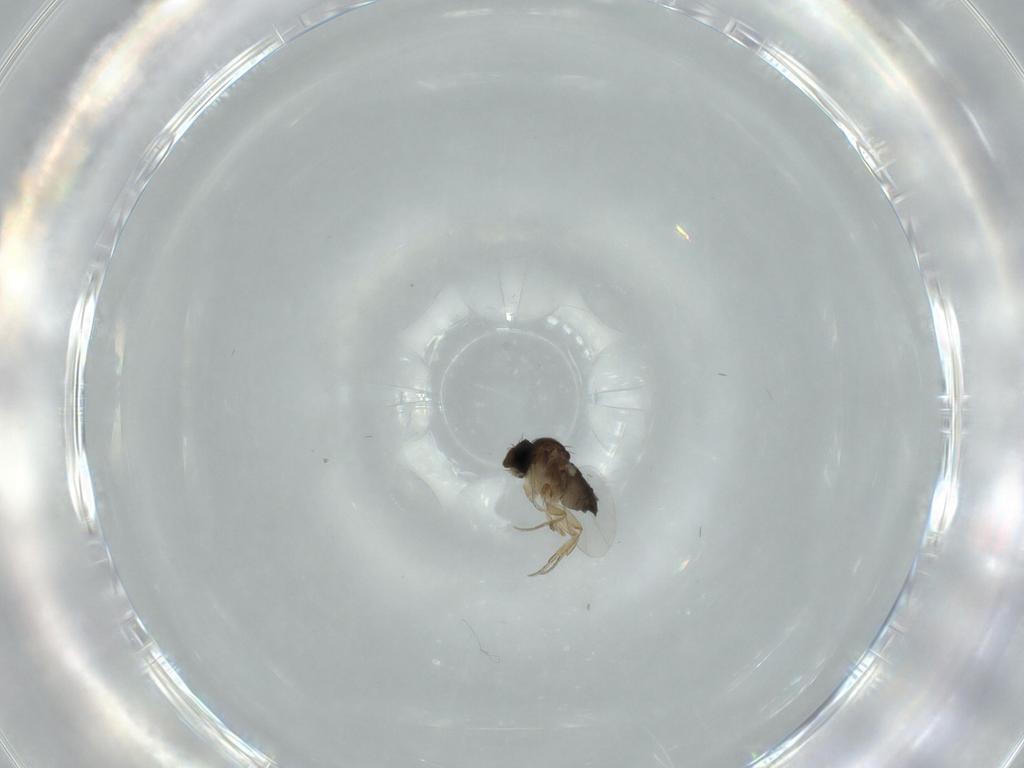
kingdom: Animalia
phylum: Arthropoda
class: Insecta
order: Diptera
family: Phoridae
